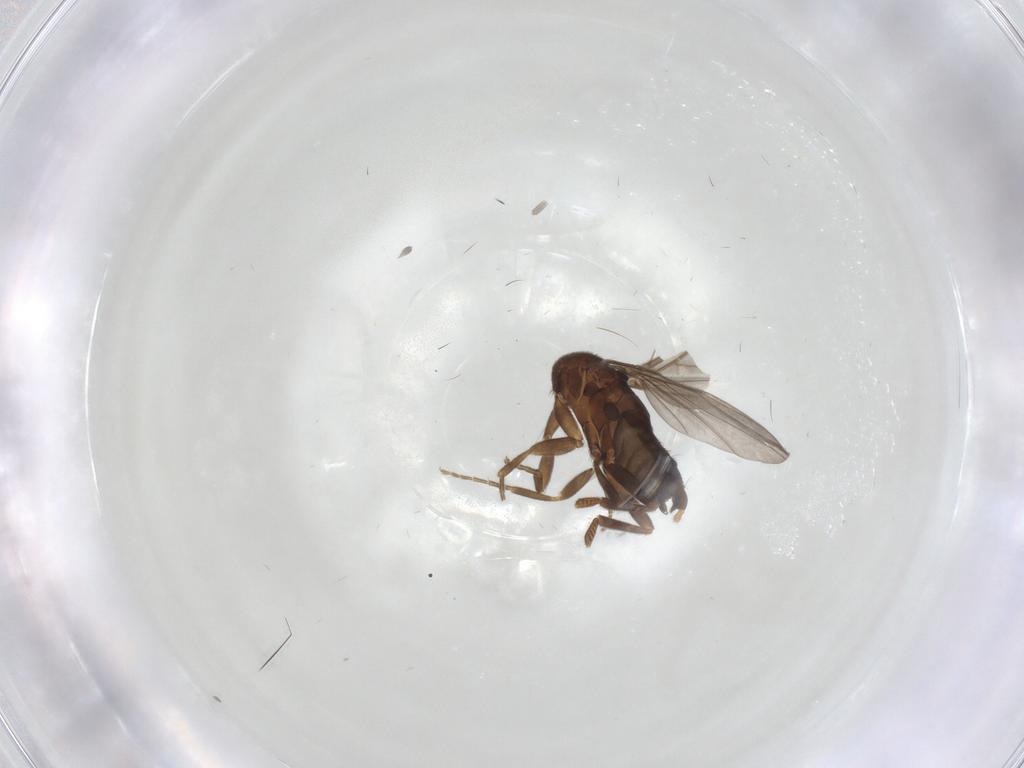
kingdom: Animalia
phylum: Arthropoda
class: Insecta
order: Diptera
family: Phoridae
